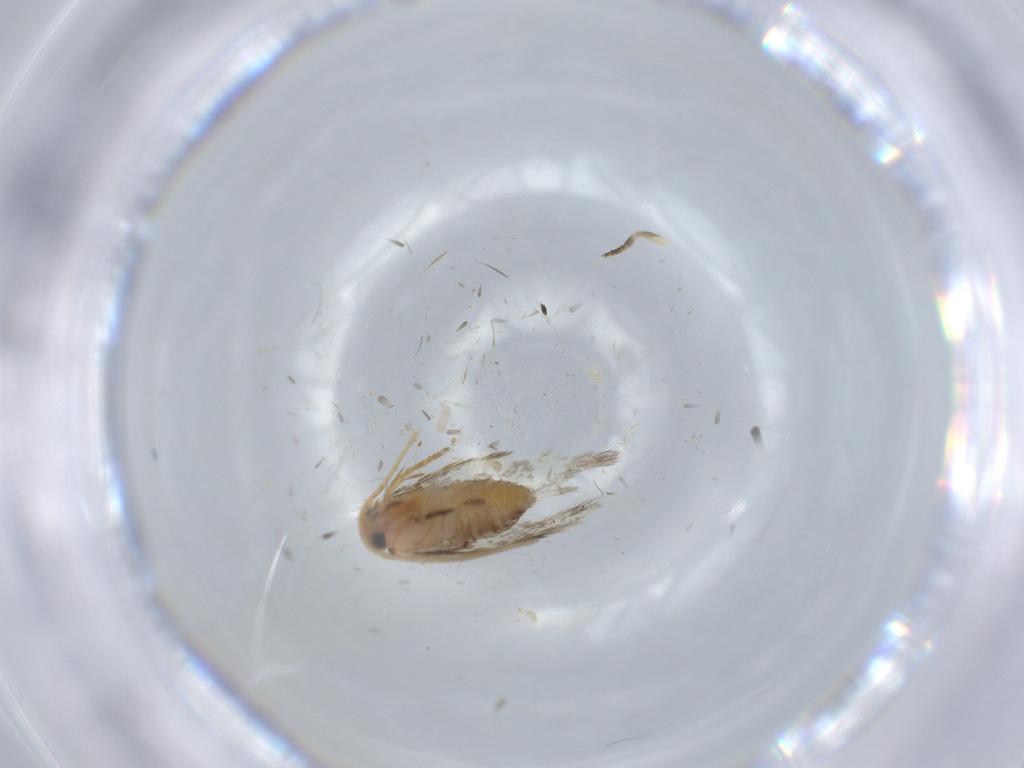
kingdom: Animalia
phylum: Arthropoda
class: Insecta
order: Lepidoptera
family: Nepticulidae
